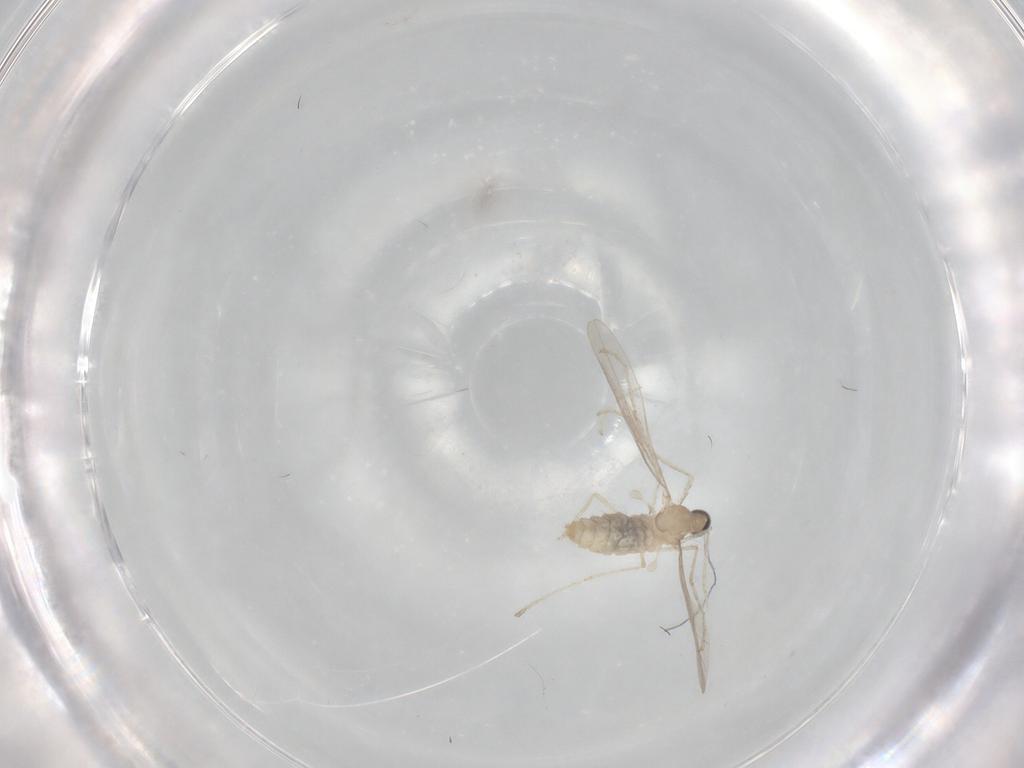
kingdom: Animalia
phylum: Arthropoda
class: Insecta
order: Diptera
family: Cecidomyiidae
